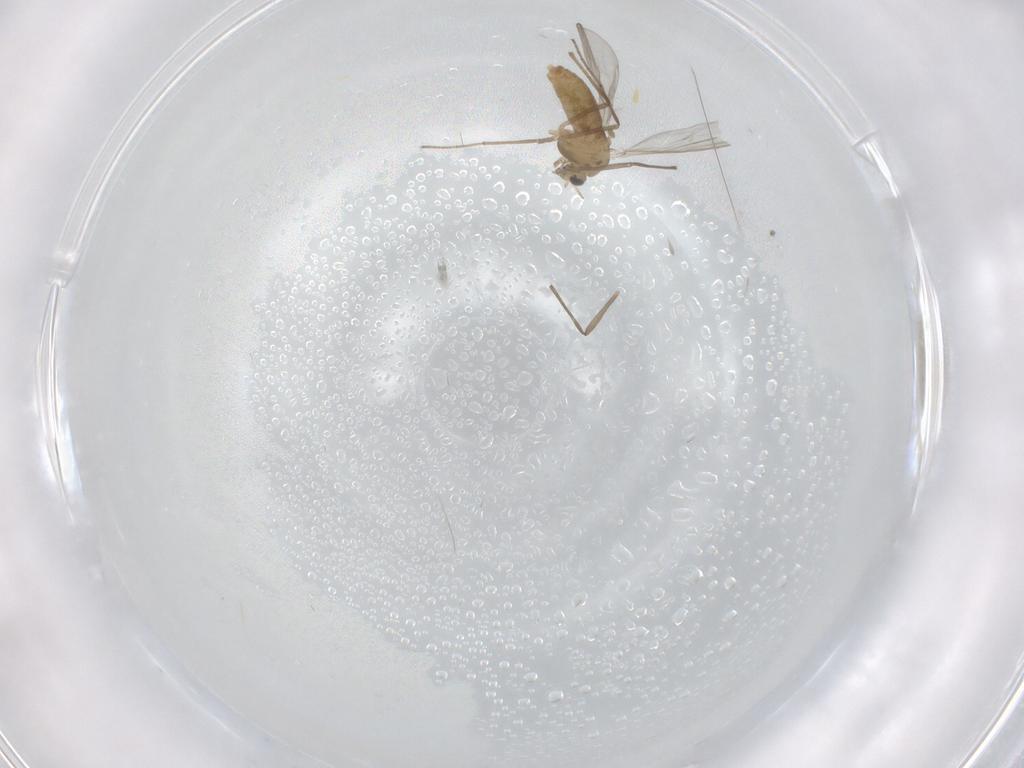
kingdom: Animalia
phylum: Arthropoda
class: Insecta
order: Diptera
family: Chironomidae
